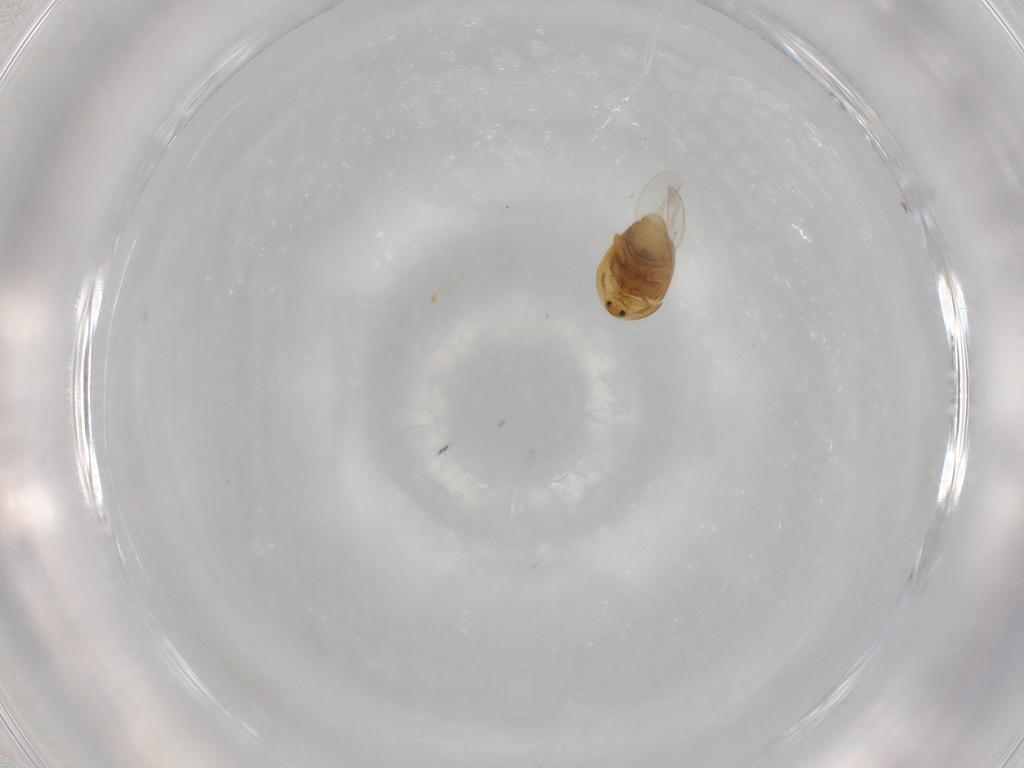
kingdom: Animalia
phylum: Arthropoda
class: Insecta
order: Coleoptera
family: Corylophidae
